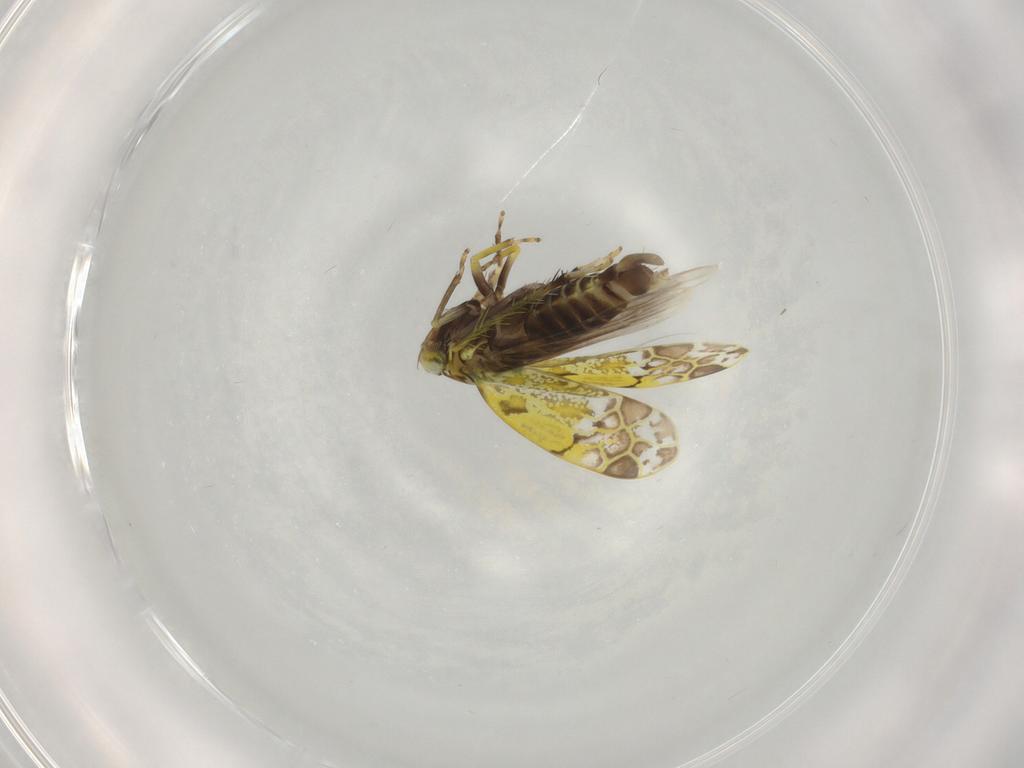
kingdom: Animalia
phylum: Arthropoda
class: Insecta
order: Hemiptera
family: Cicadellidae
